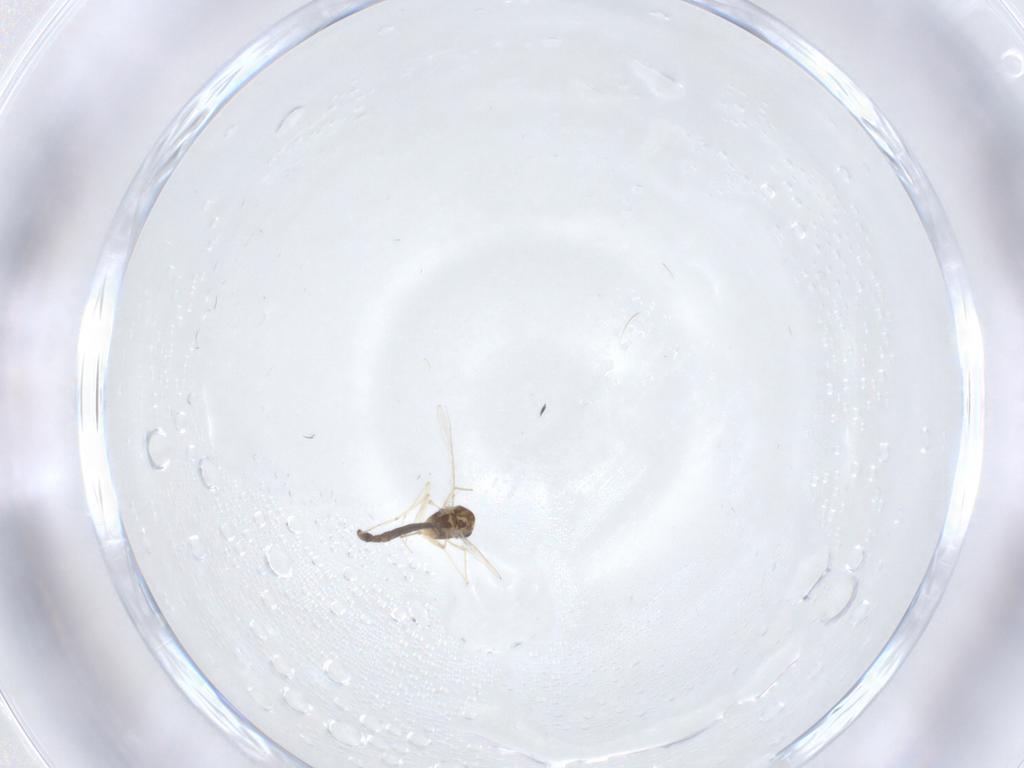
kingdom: Animalia
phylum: Arthropoda
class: Insecta
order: Diptera
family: Chironomidae
